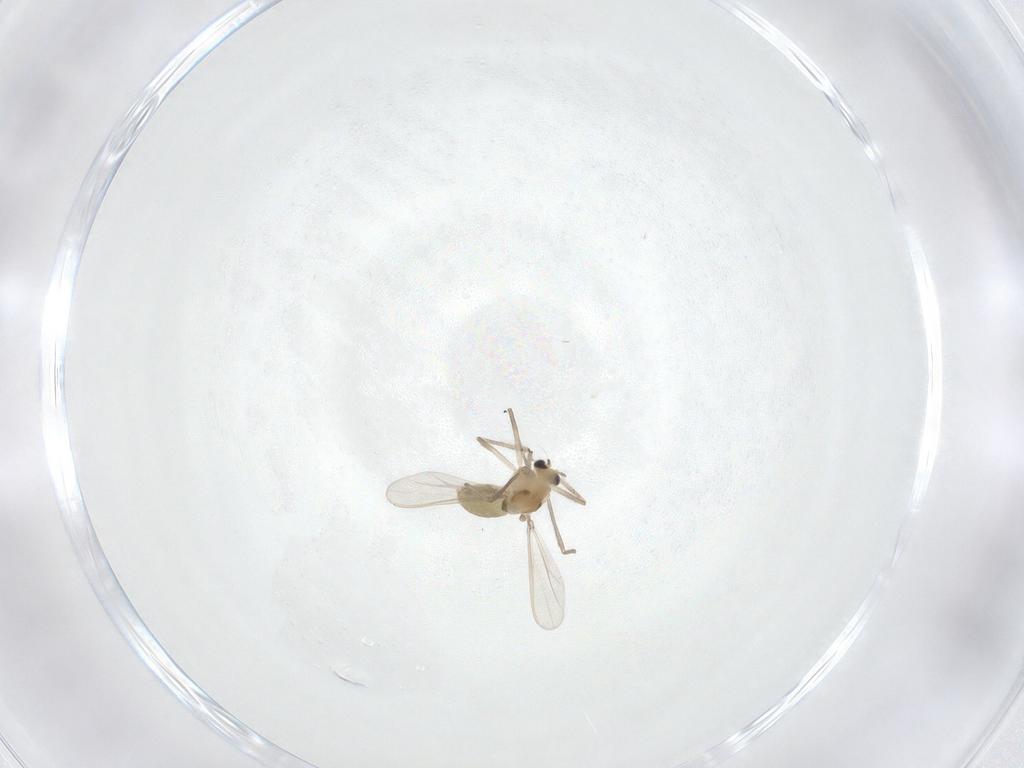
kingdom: Animalia
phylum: Arthropoda
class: Insecta
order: Diptera
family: Chironomidae
